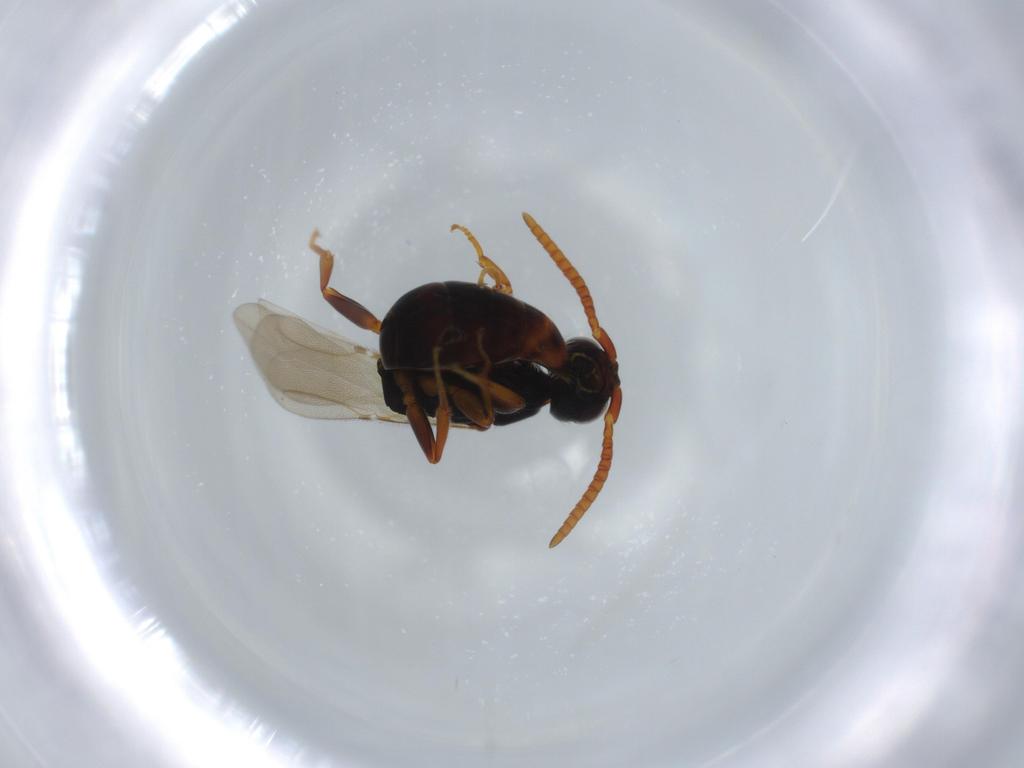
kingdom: Animalia
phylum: Arthropoda
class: Insecta
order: Hymenoptera
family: Bethylidae
